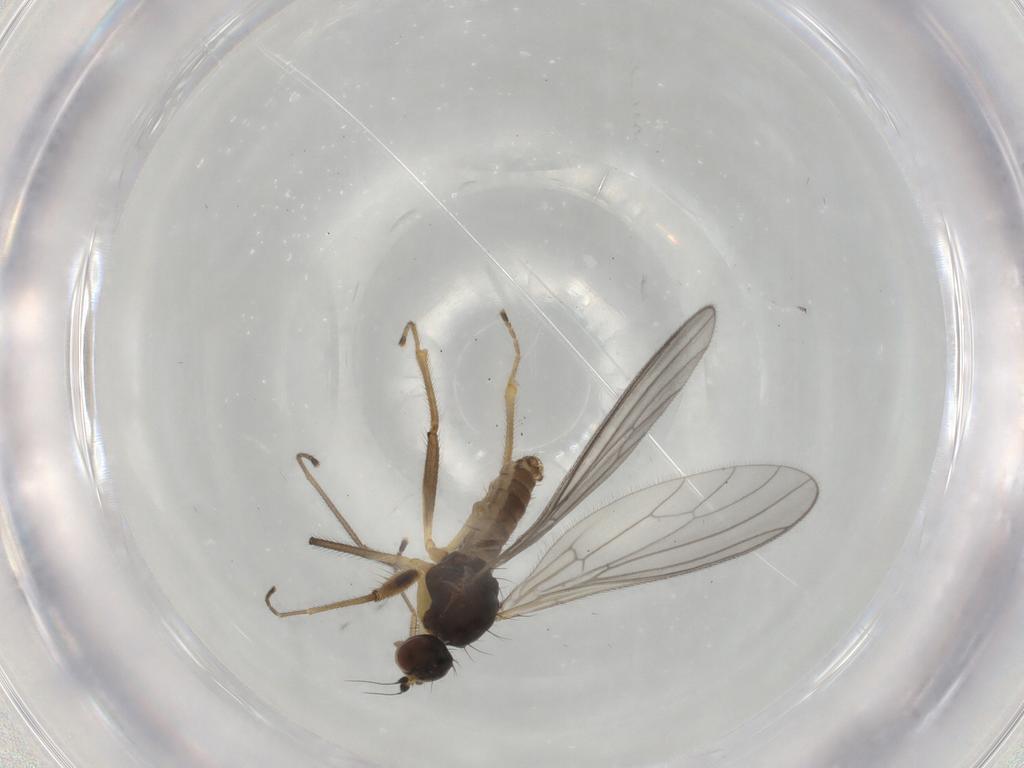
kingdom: Animalia
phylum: Arthropoda
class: Insecta
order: Diptera
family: Empididae
